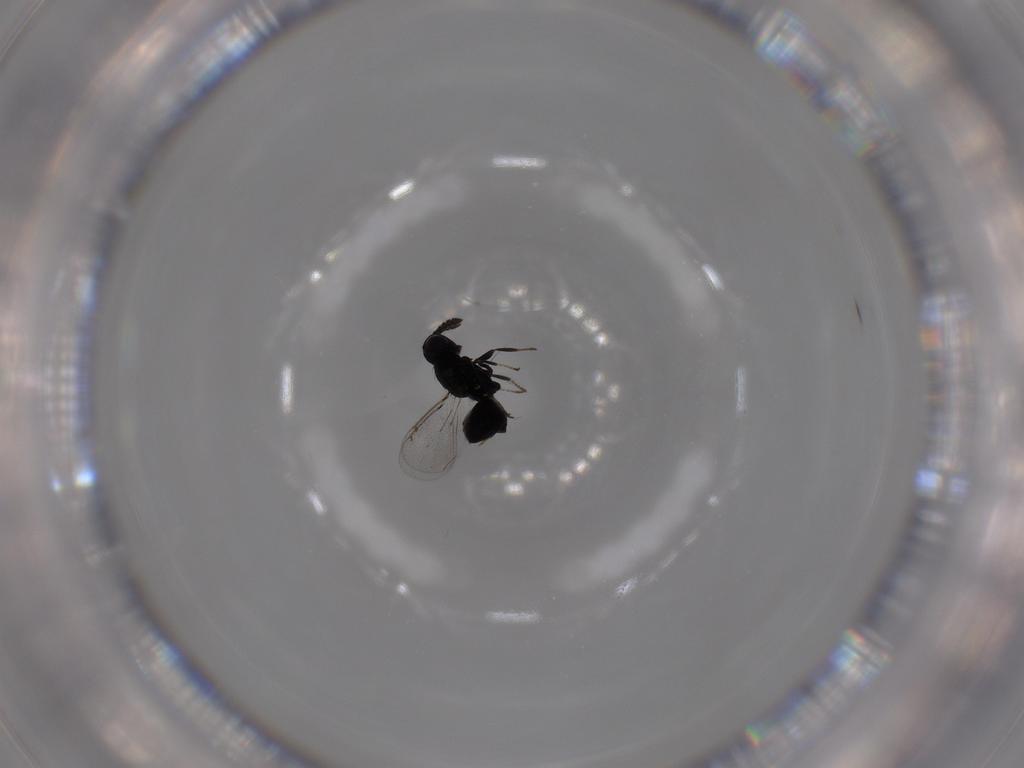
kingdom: Animalia
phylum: Arthropoda
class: Insecta
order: Hymenoptera
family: Eulophidae
